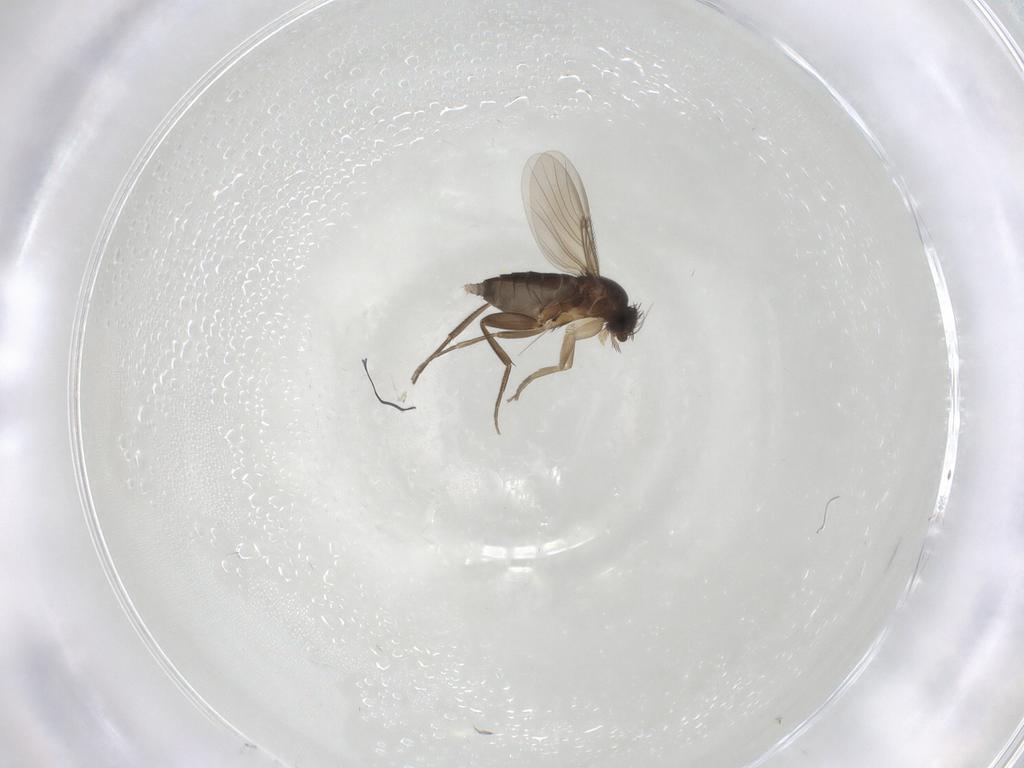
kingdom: Animalia
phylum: Arthropoda
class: Insecta
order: Diptera
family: Phoridae
